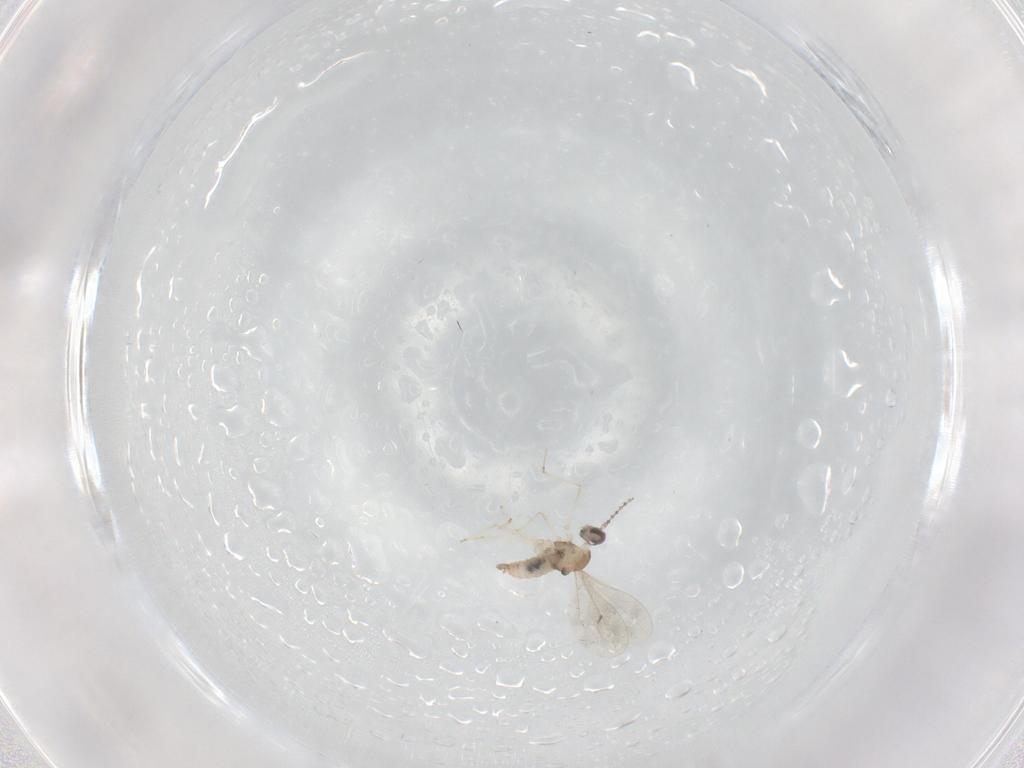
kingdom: Animalia
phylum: Arthropoda
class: Insecta
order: Diptera
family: Cecidomyiidae
